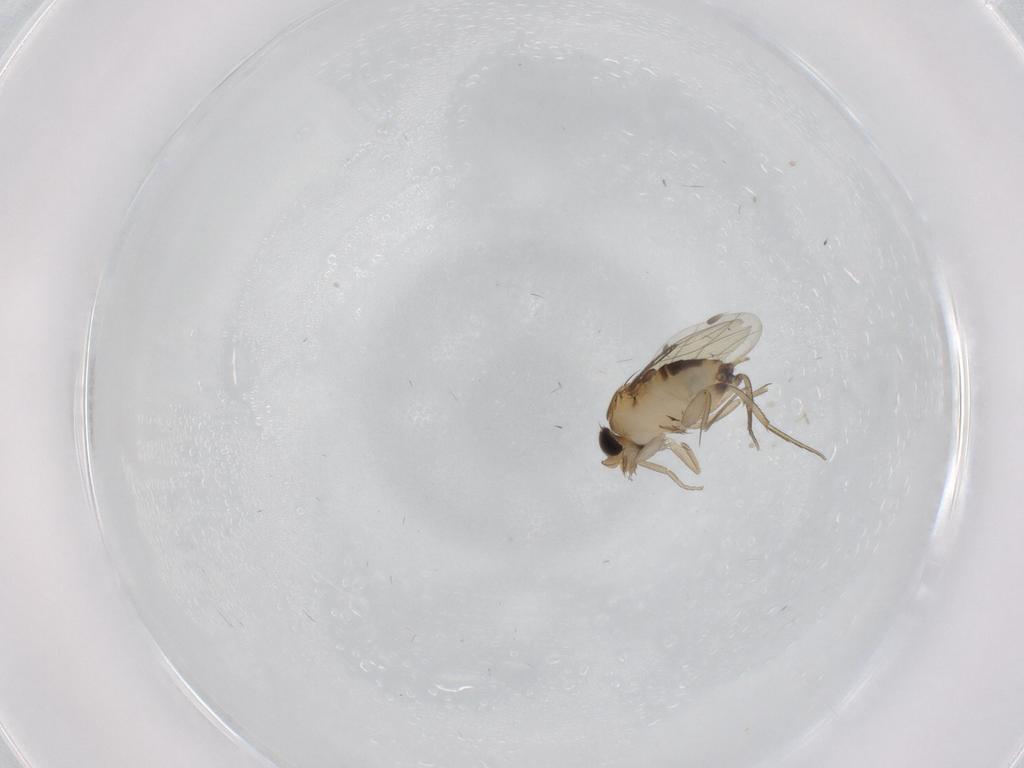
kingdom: Animalia
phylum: Arthropoda
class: Insecta
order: Diptera
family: Phoridae
